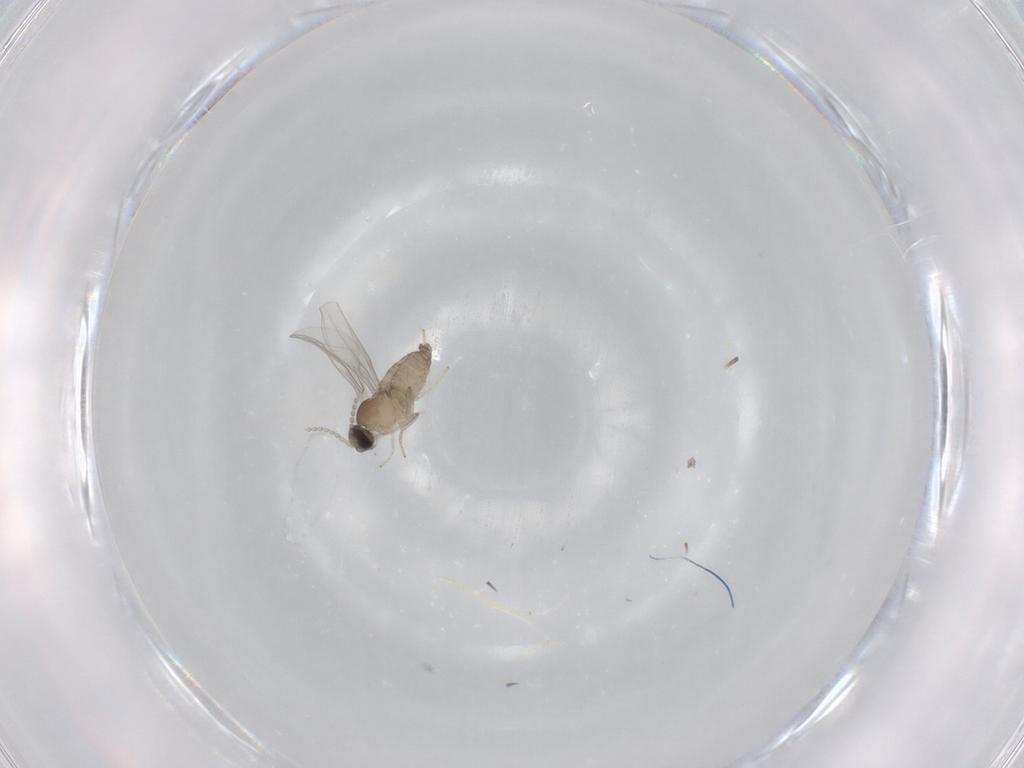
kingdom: Animalia
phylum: Arthropoda
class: Insecta
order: Diptera
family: Cecidomyiidae
